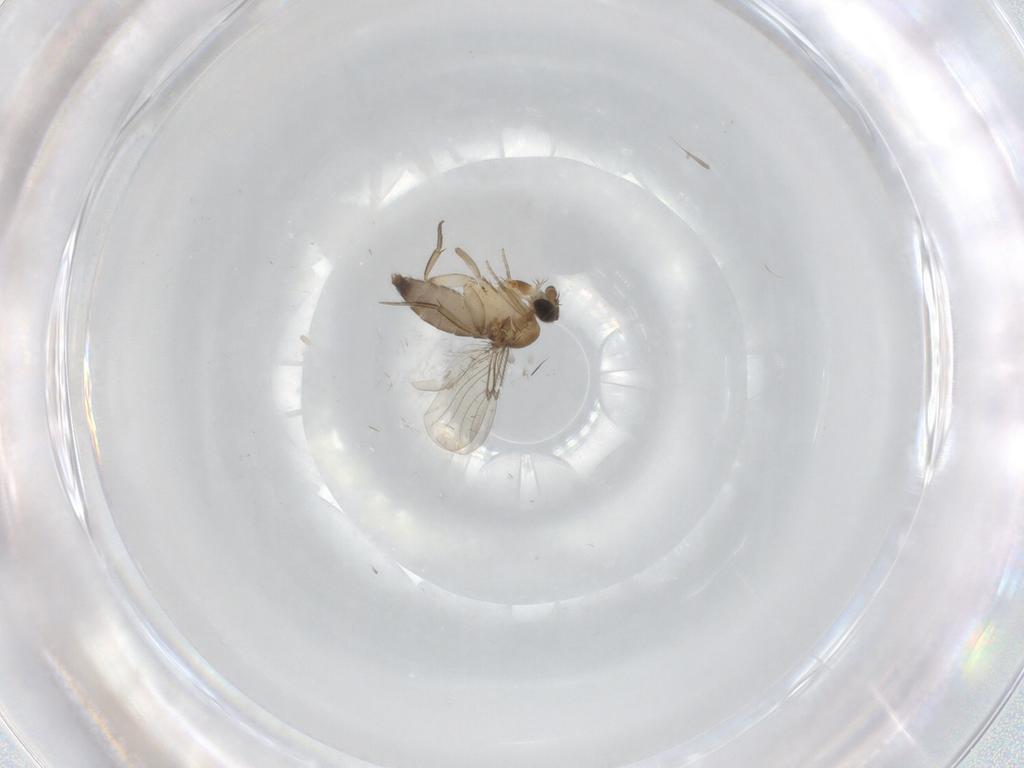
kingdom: Animalia
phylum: Arthropoda
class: Insecta
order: Diptera
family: Phoridae
